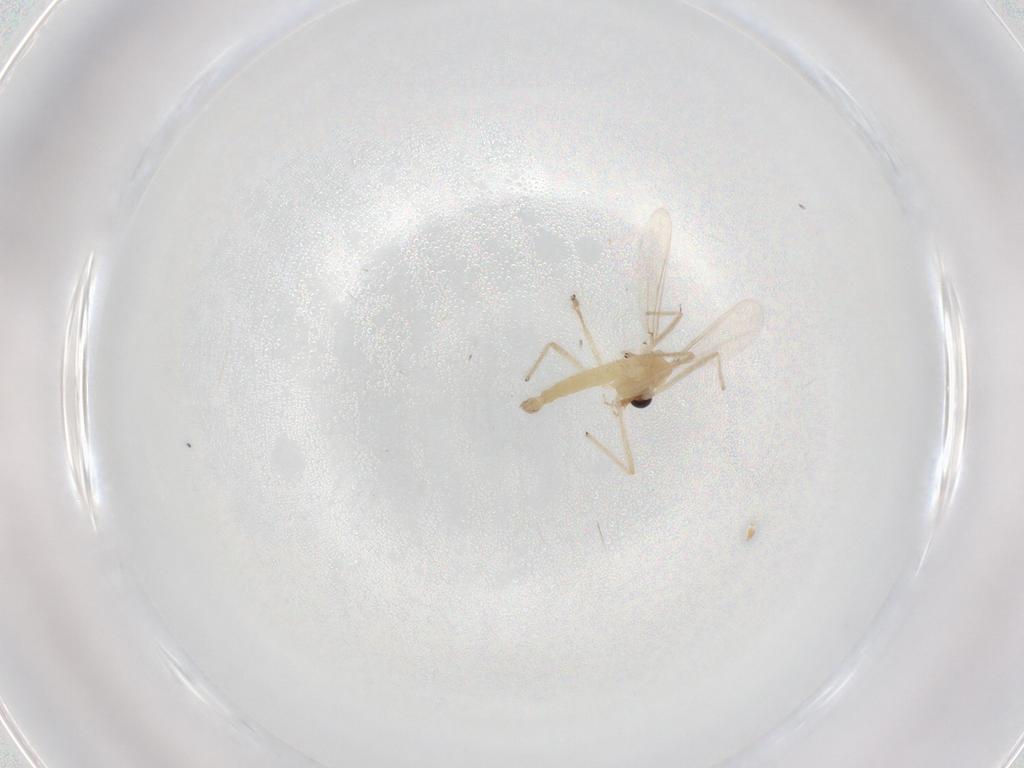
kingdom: Animalia
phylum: Arthropoda
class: Insecta
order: Diptera
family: Chironomidae
